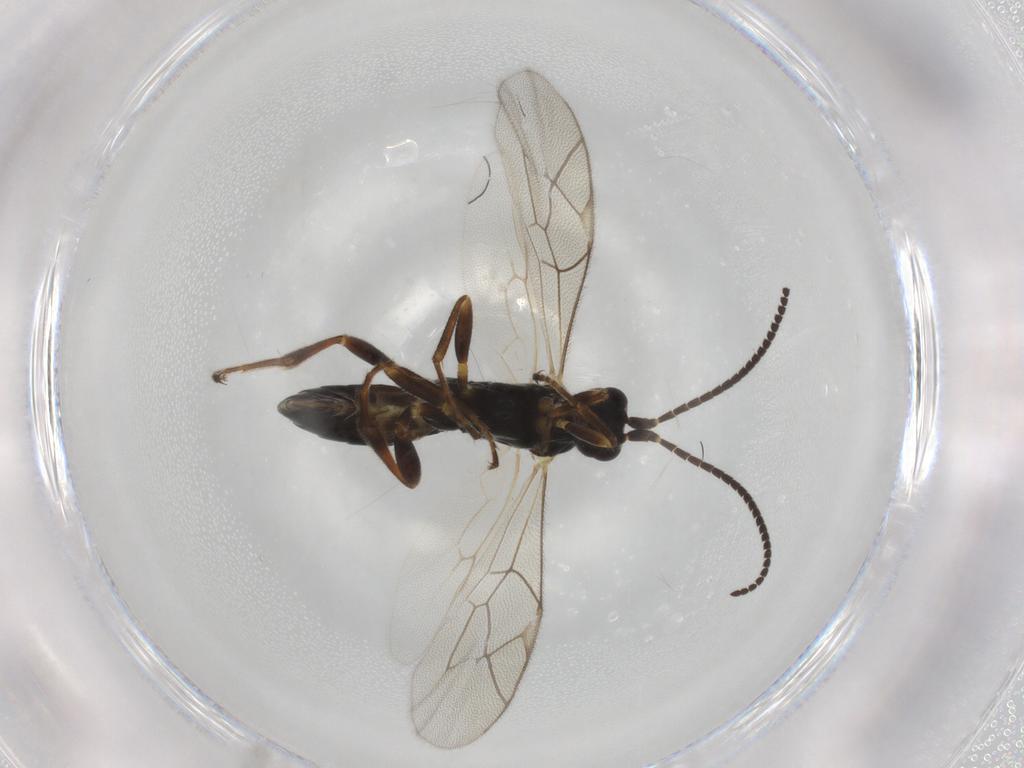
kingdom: Animalia
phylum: Arthropoda
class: Insecta
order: Hymenoptera
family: Ichneumonidae
